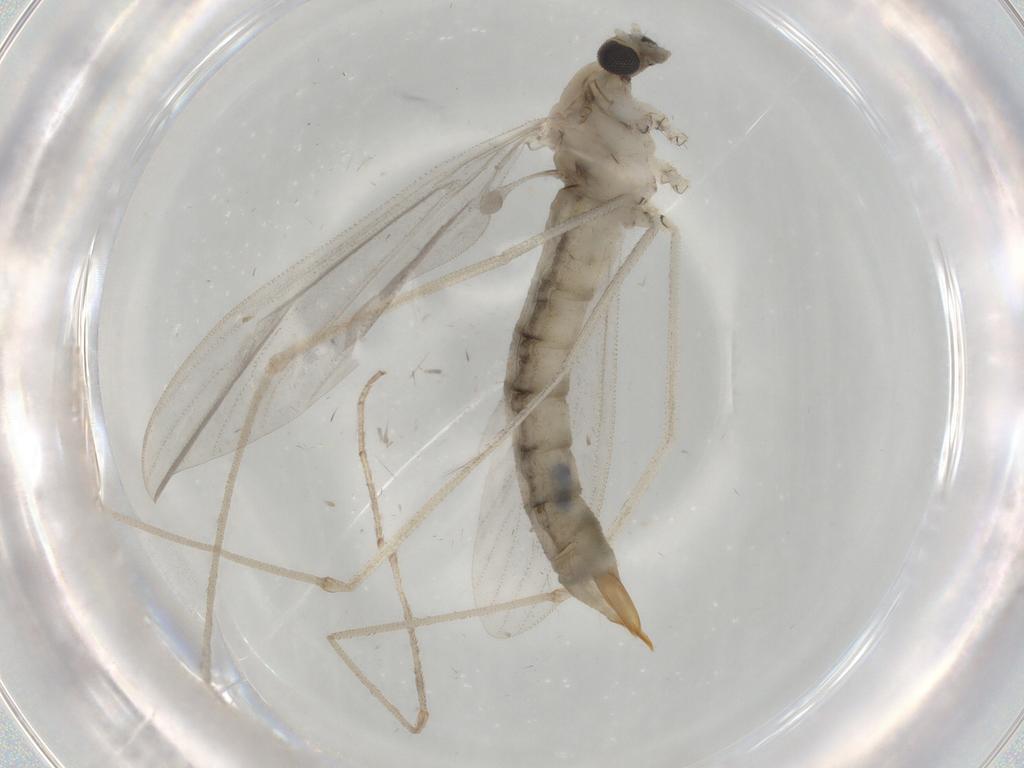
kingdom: Animalia
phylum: Arthropoda
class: Insecta
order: Diptera
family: Limoniidae
